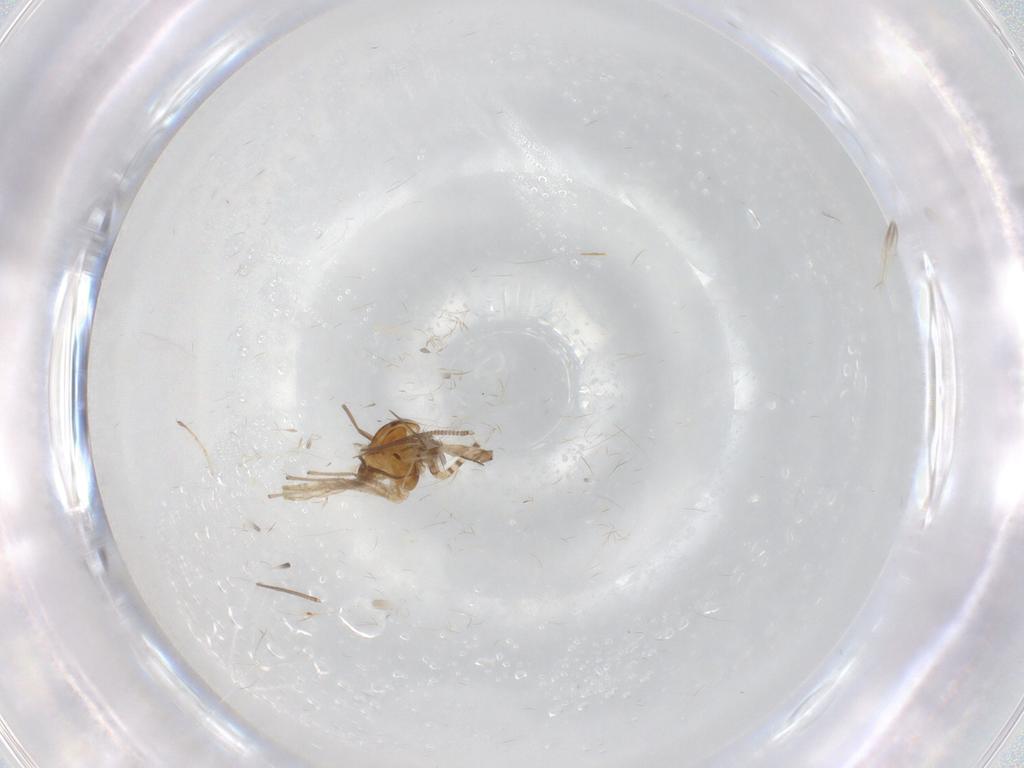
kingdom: Animalia
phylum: Arthropoda
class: Insecta
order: Diptera
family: Chironomidae
